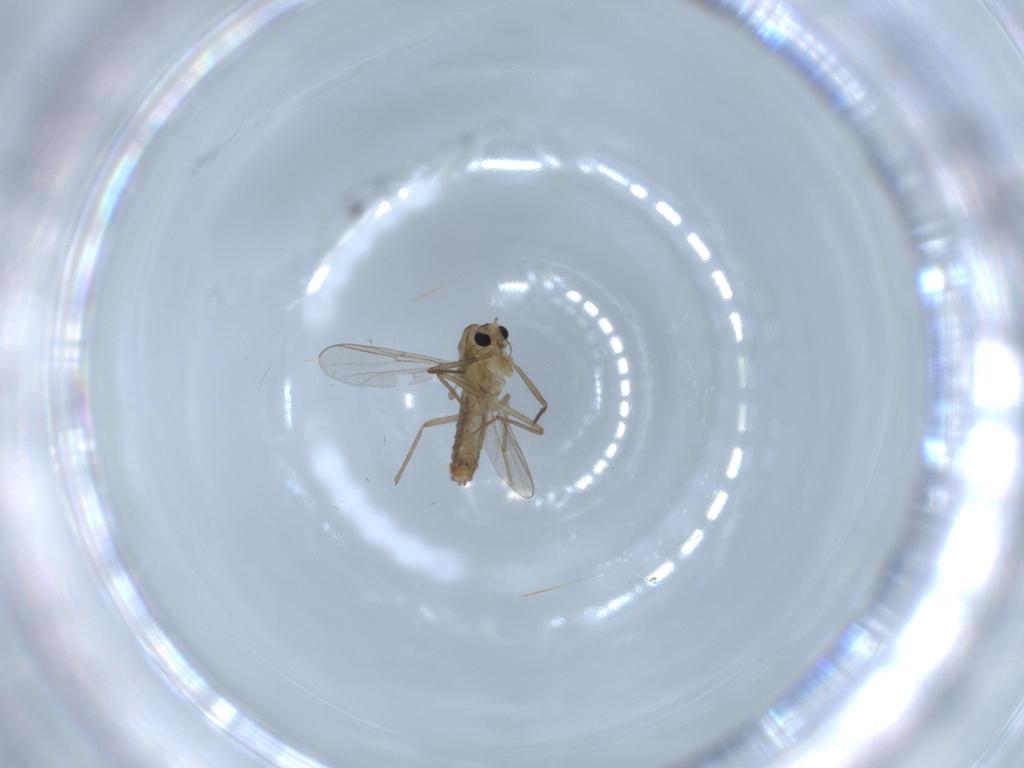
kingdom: Animalia
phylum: Arthropoda
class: Insecta
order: Diptera
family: Chironomidae
